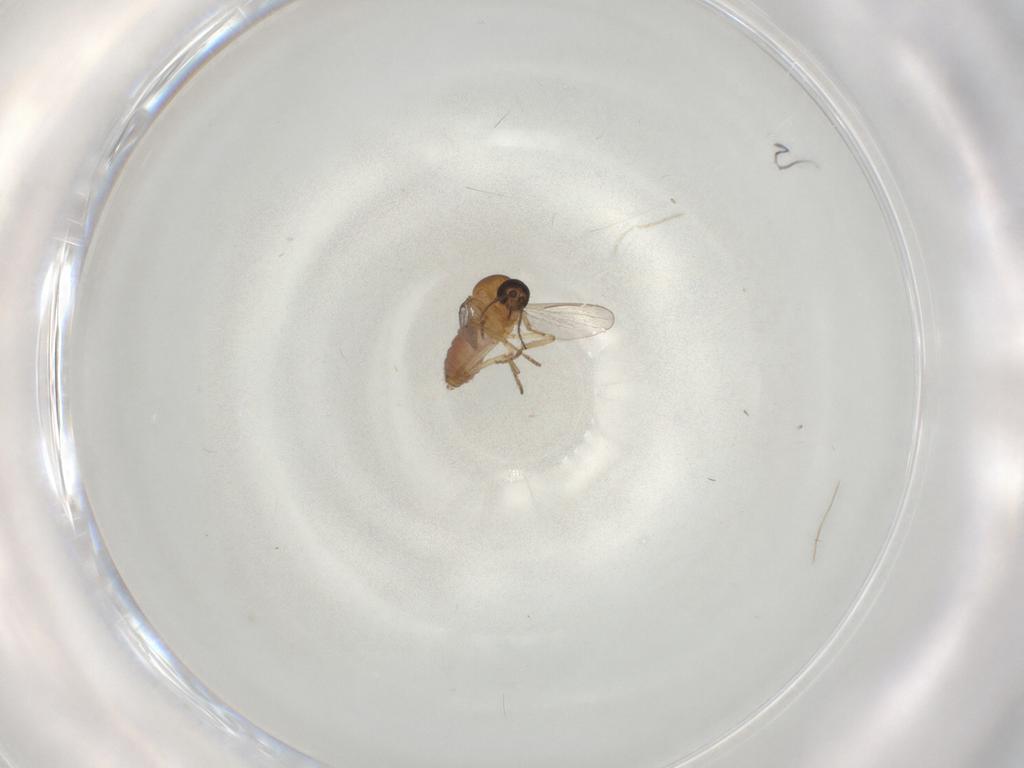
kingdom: Animalia
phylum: Arthropoda
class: Insecta
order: Diptera
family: Ceratopogonidae
